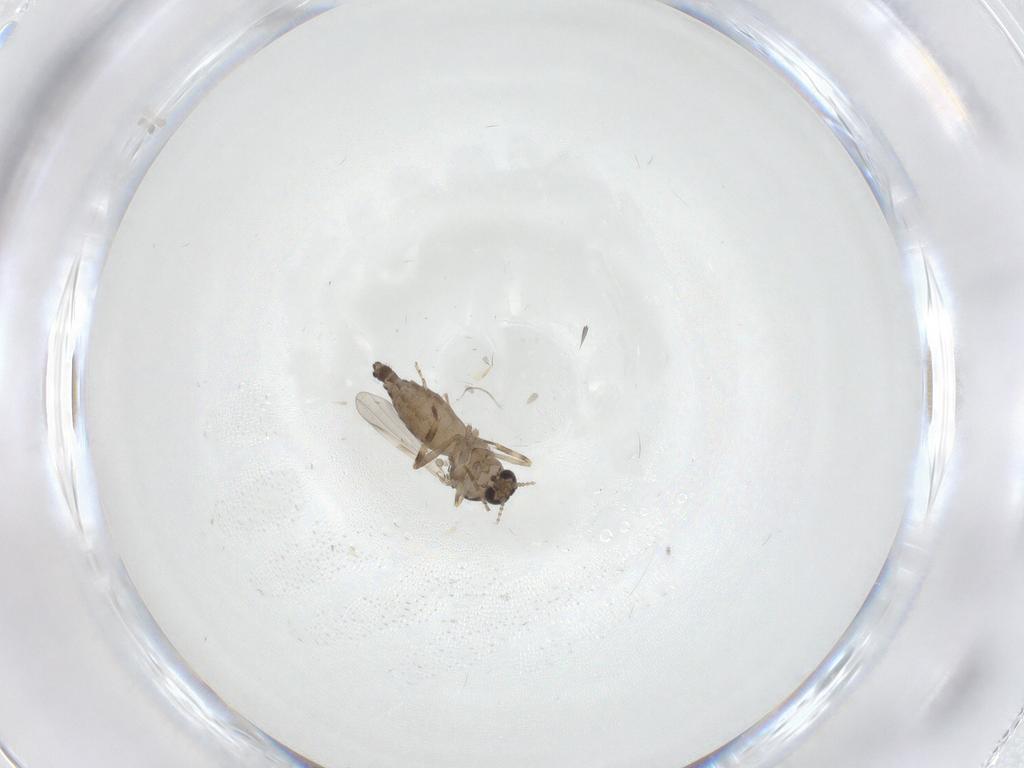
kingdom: Animalia
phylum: Arthropoda
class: Insecta
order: Diptera
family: Ceratopogonidae
